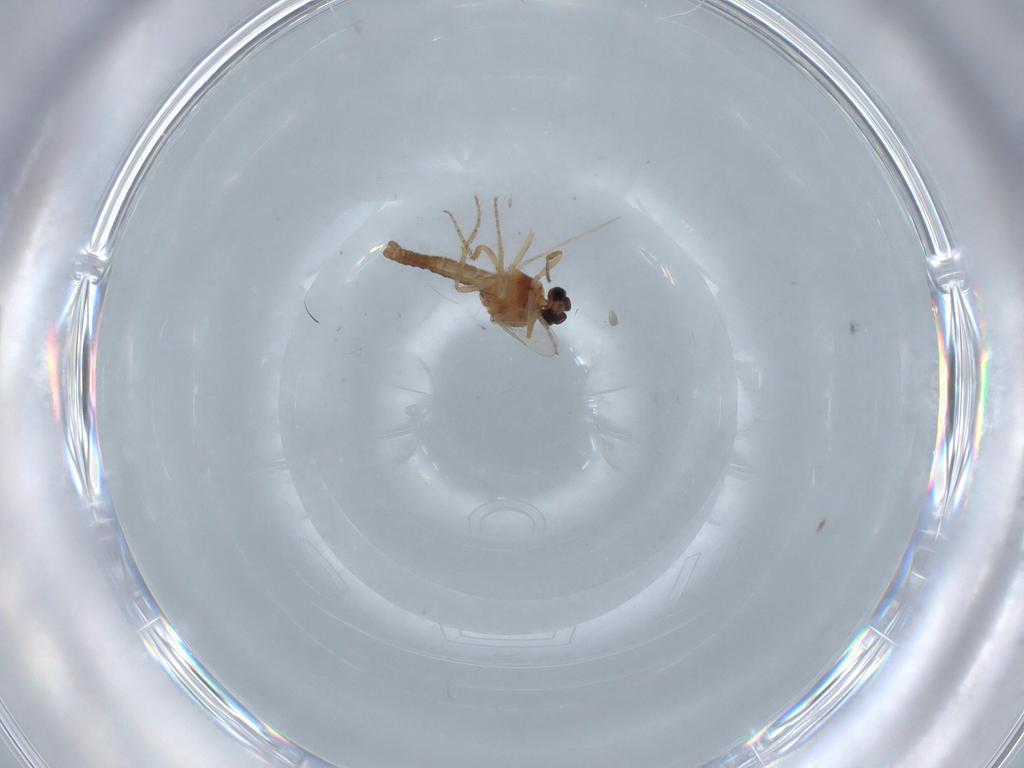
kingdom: Animalia
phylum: Arthropoda
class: Insecta
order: Diptera
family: Ceratopogonidae
